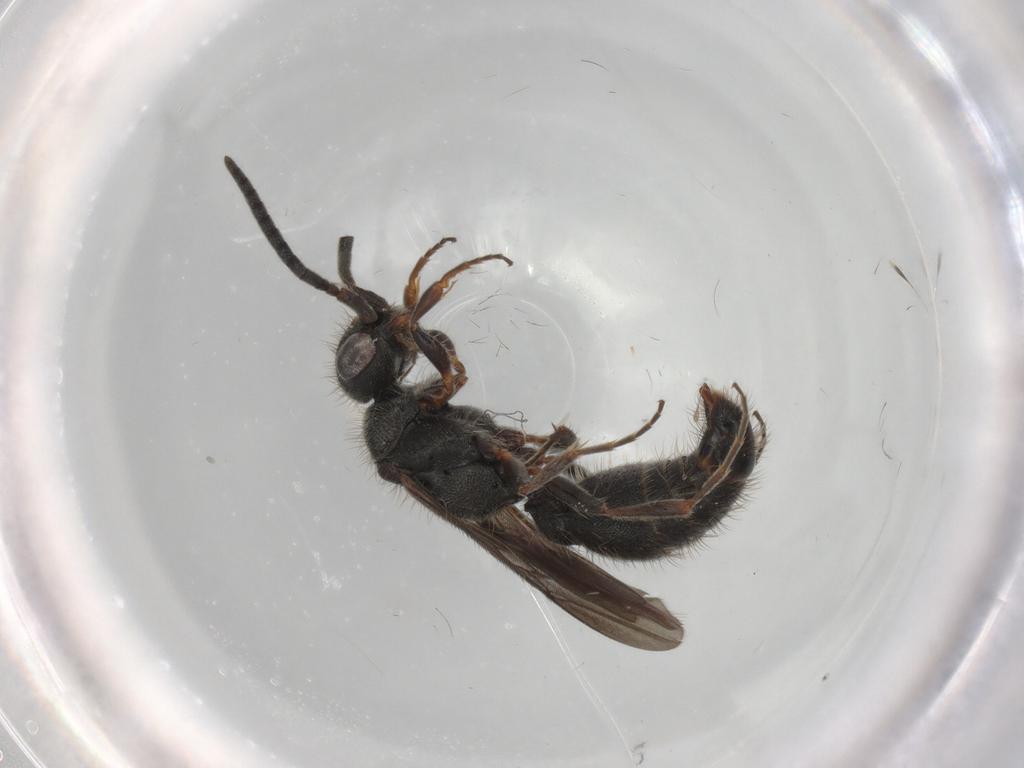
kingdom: Animalia
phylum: Arthropoda
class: Insecta
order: Hymenoptera
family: Mutillidae
